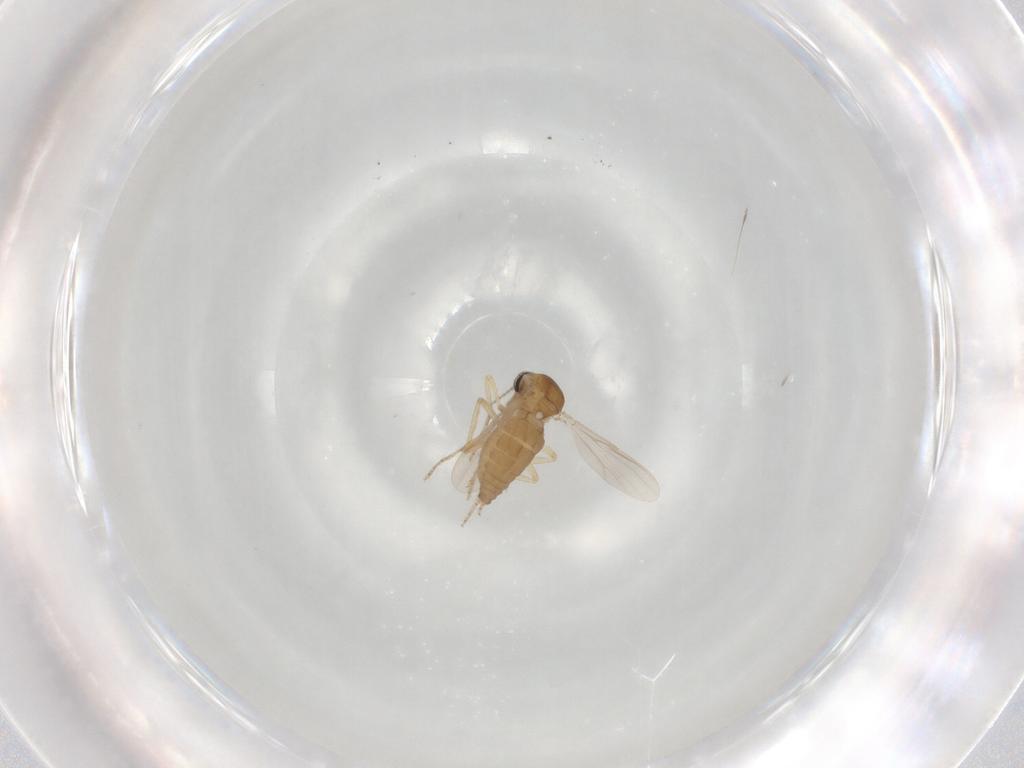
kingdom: Animalia
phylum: Arthropoda
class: Insecta
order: Diptera
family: Ceratopogonidae
